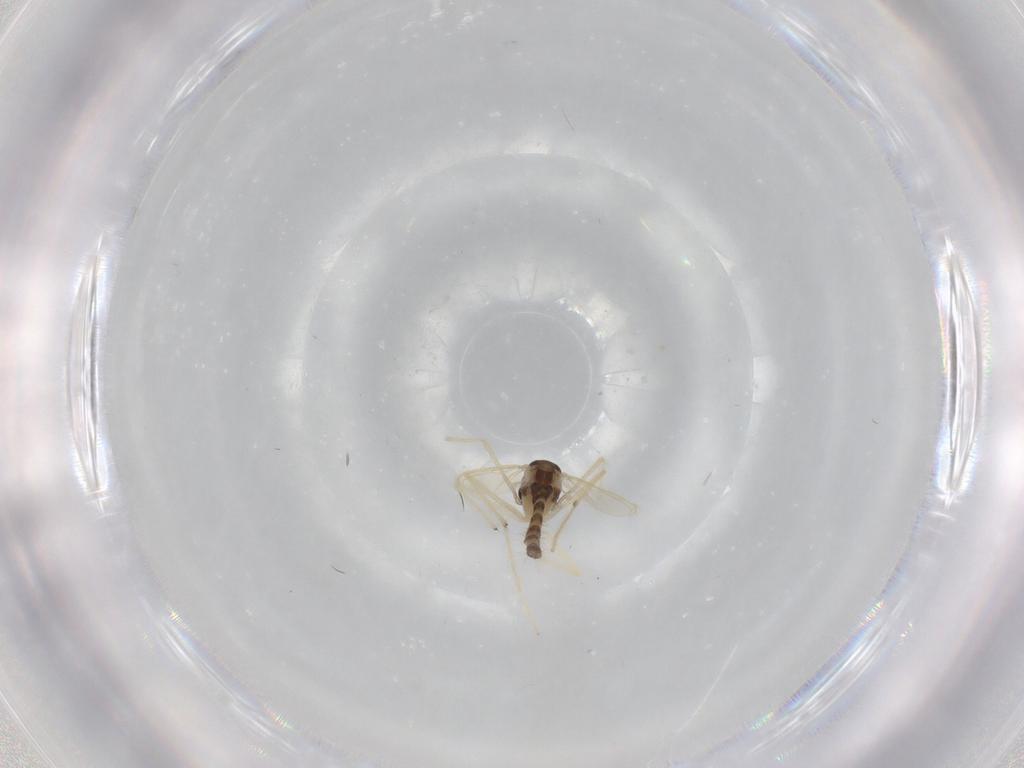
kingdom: Animalia
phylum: Arthropoda
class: Insecta
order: Diptera
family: Chironomidae
